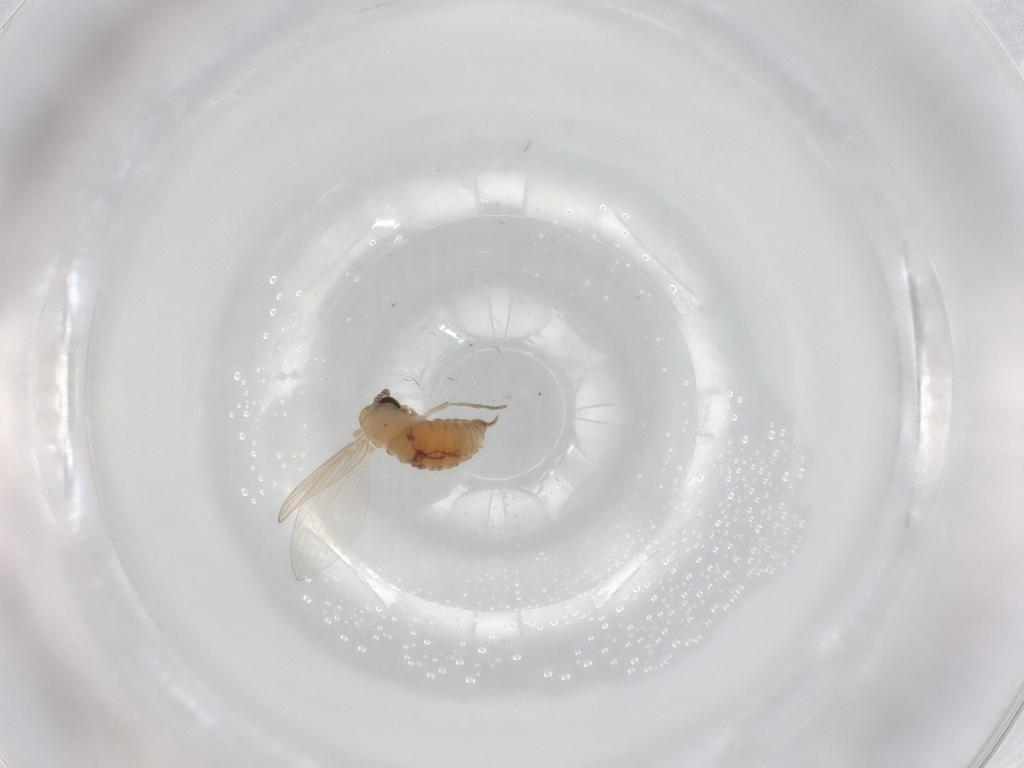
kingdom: Animalia
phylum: Arthropoda
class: Insecta
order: Diptera
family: Psychodidae
